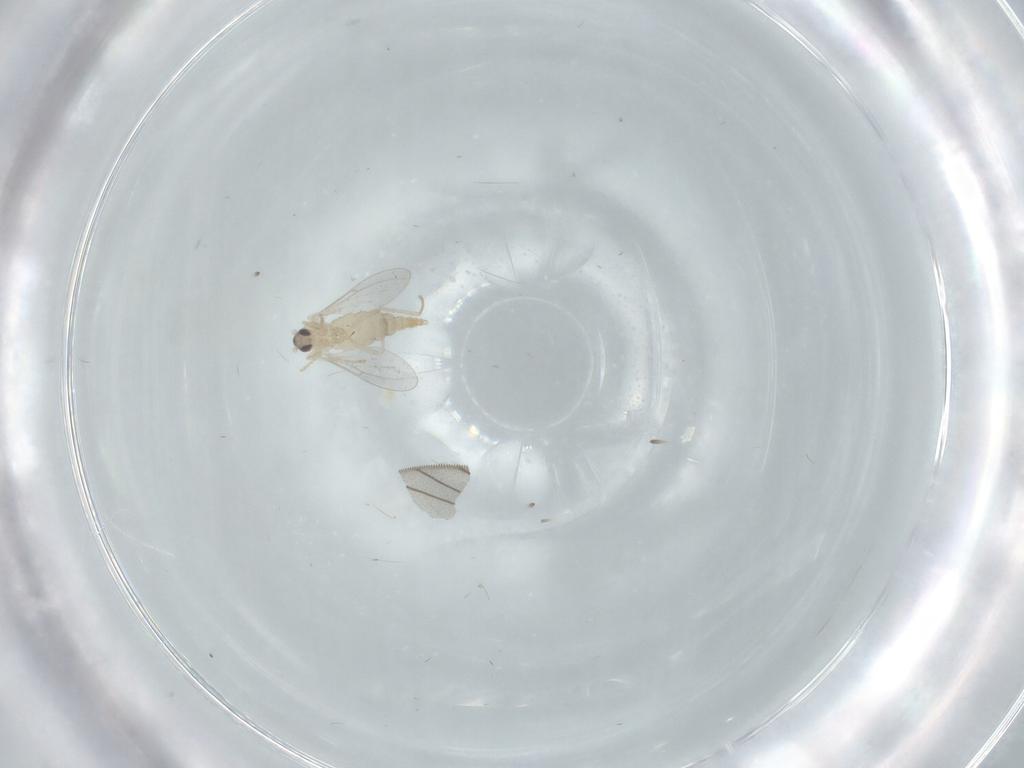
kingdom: Animalia
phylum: Arthropoda
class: Insecta
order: Diptera
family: Cecidomyiidae
